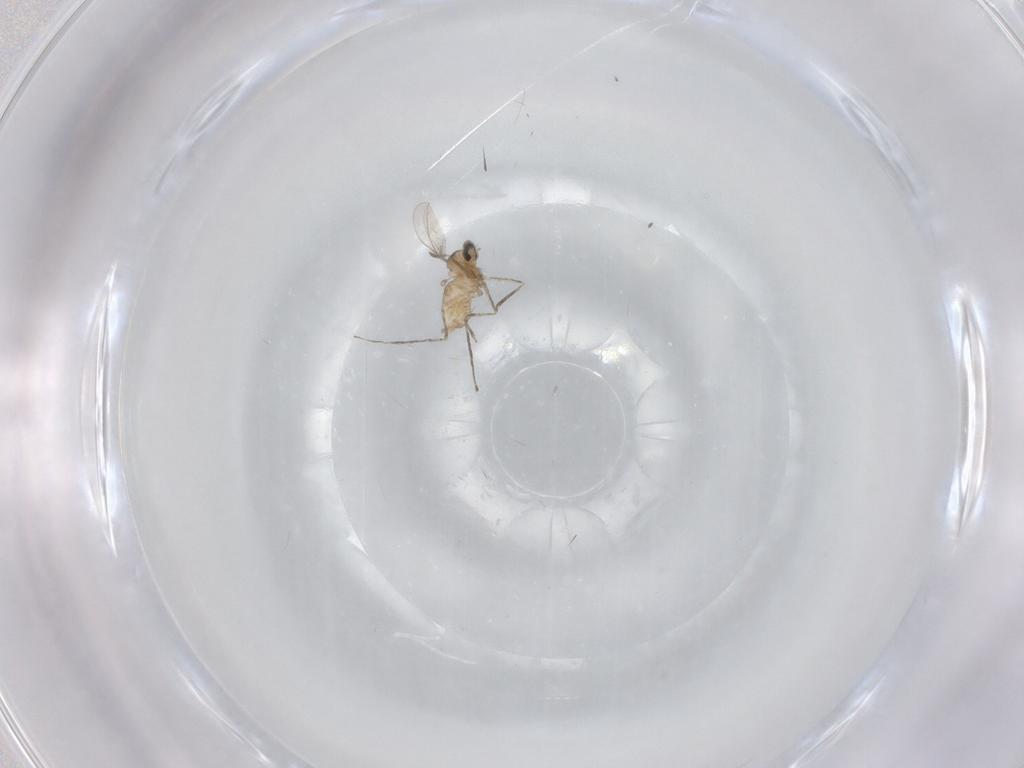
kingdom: Animalia
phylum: Arthropoda
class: Insecta
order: Diptera
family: Cecidomyiidae
